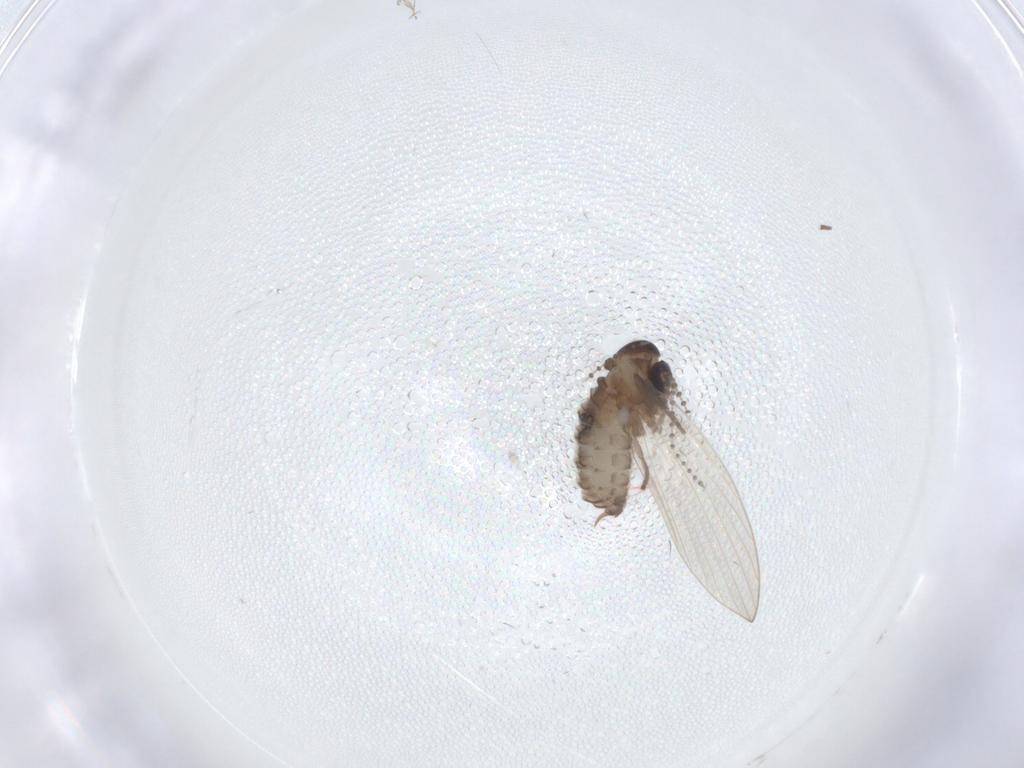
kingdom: Animalia
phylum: Arthropoda
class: Insecta
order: Diptera
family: Psychodidae
